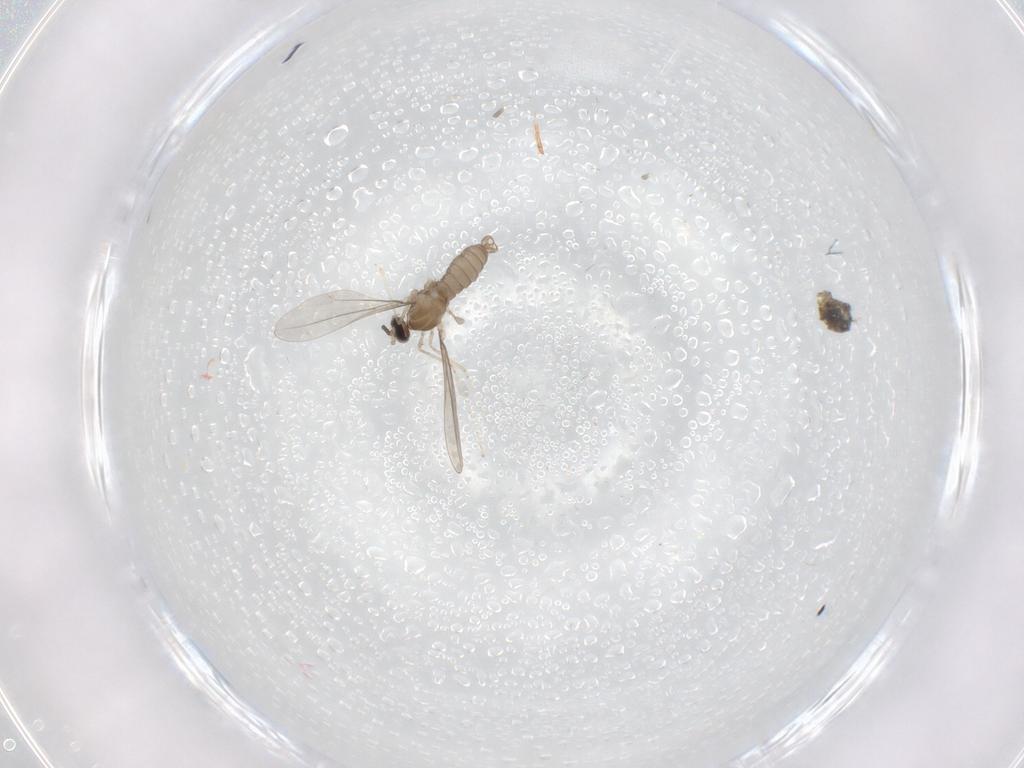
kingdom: Animalia
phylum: Arthropoda
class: Insecta
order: Diptera
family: Cecidomyiidae
